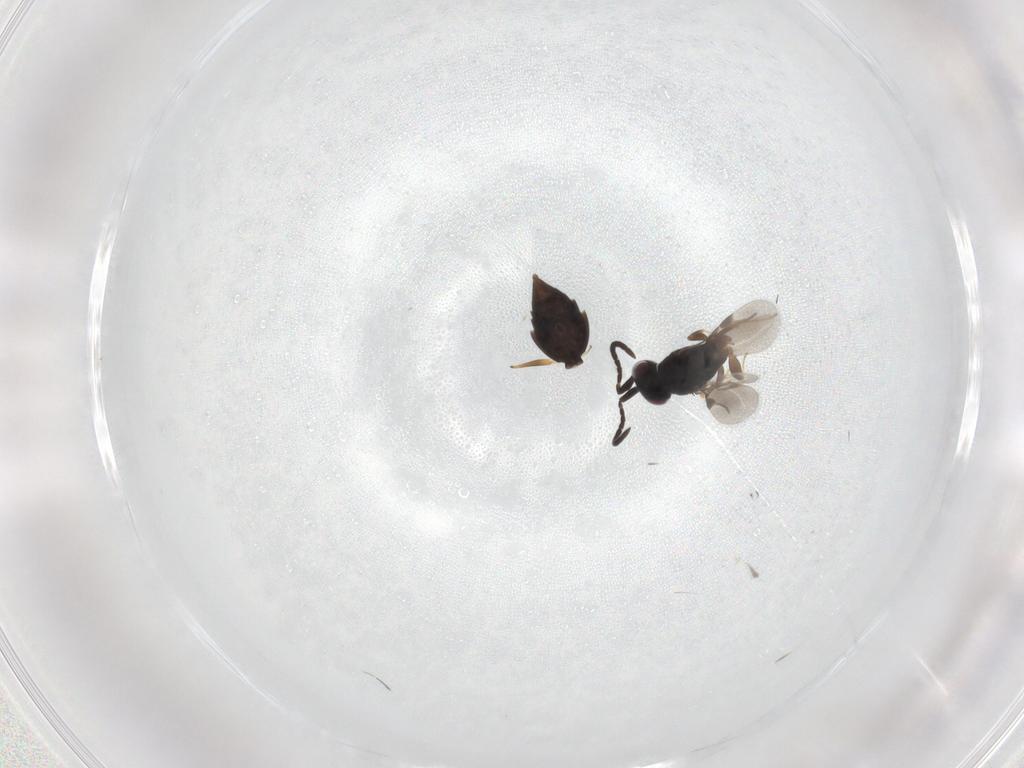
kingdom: Animalia
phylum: Arthropoda
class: Insecta
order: Hymenoptera
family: Megaspilidae
